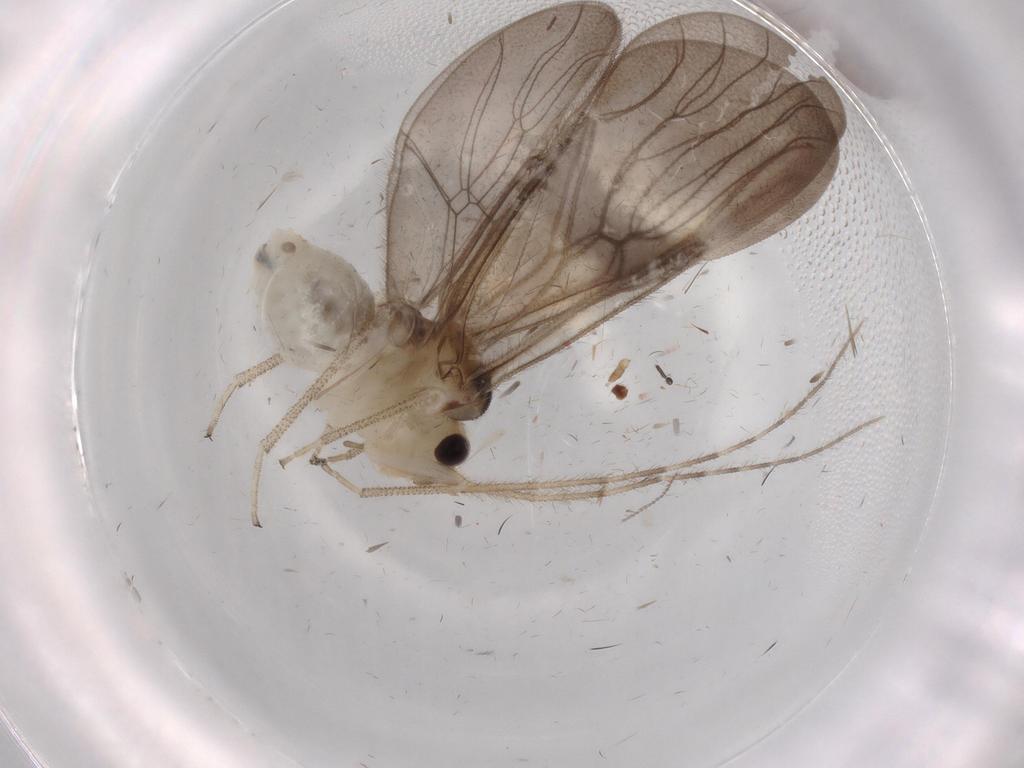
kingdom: Animalia
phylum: Arthropoda
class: Insecta
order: Psocodea
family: Amphipsocidae
